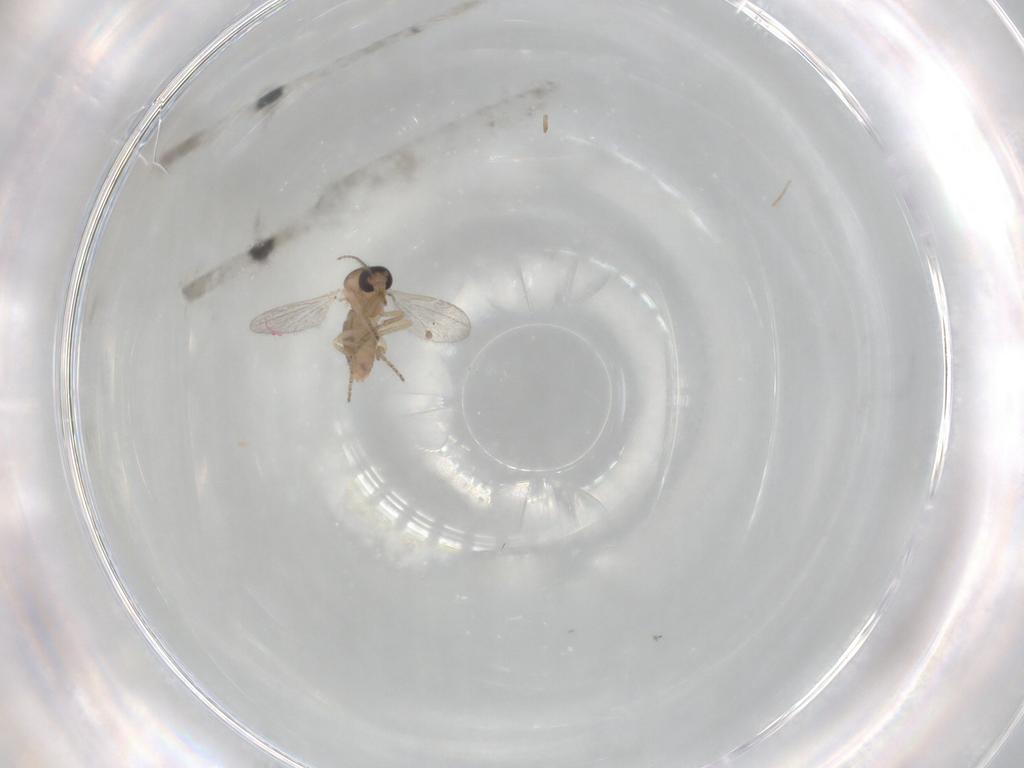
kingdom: Animalia
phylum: Arthropoda
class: Insecta
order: Diptera
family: Ceratopogonidae
